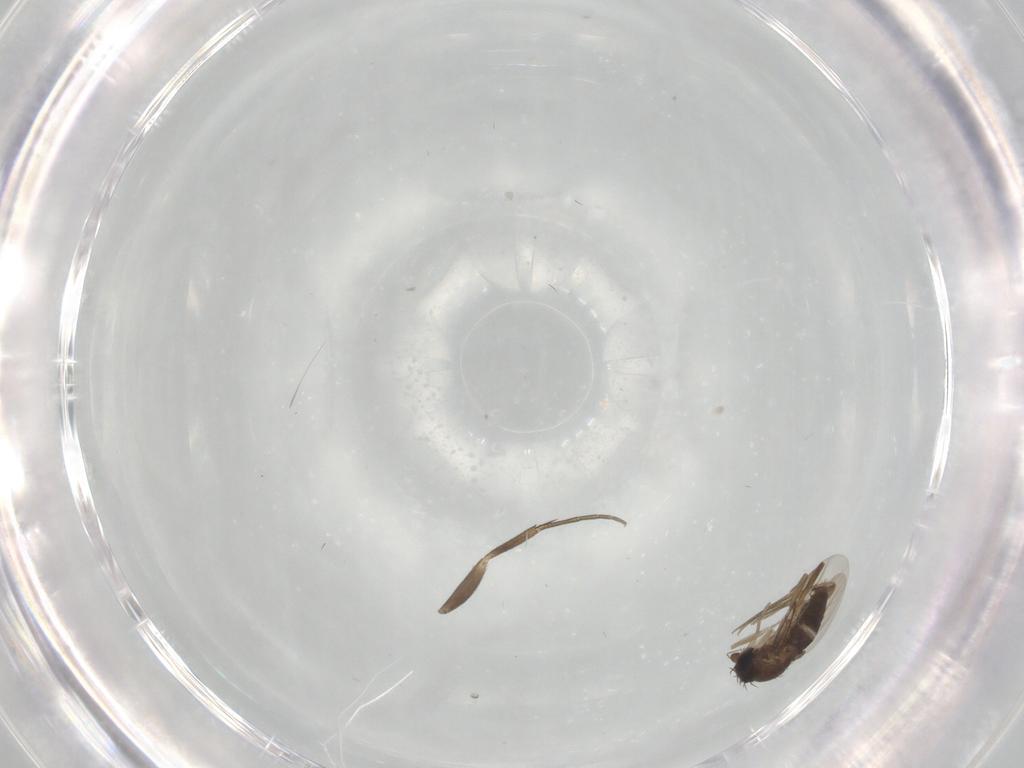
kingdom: Animalia
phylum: Arthropoda
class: Insecta
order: Diptera
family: Phoridae
